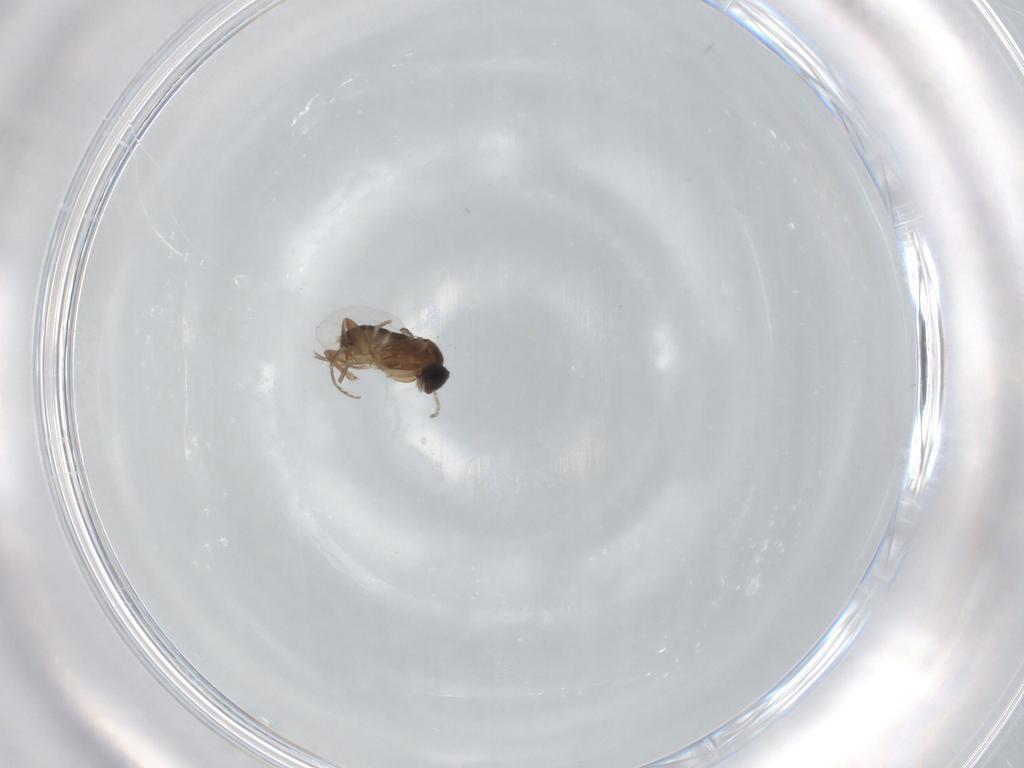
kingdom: Animalia
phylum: Arthropoda
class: Insecta
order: Diptera
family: Phoridae
